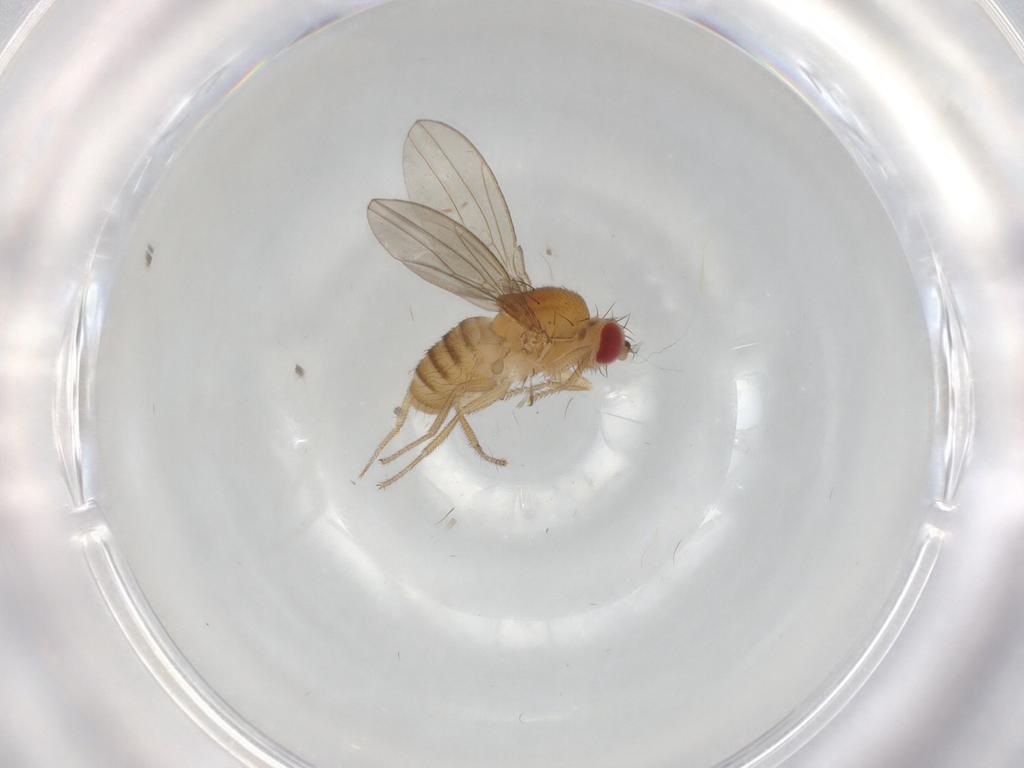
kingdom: Animalia
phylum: Arthropoda
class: Insecta
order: Diptera
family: Drosophilidae
